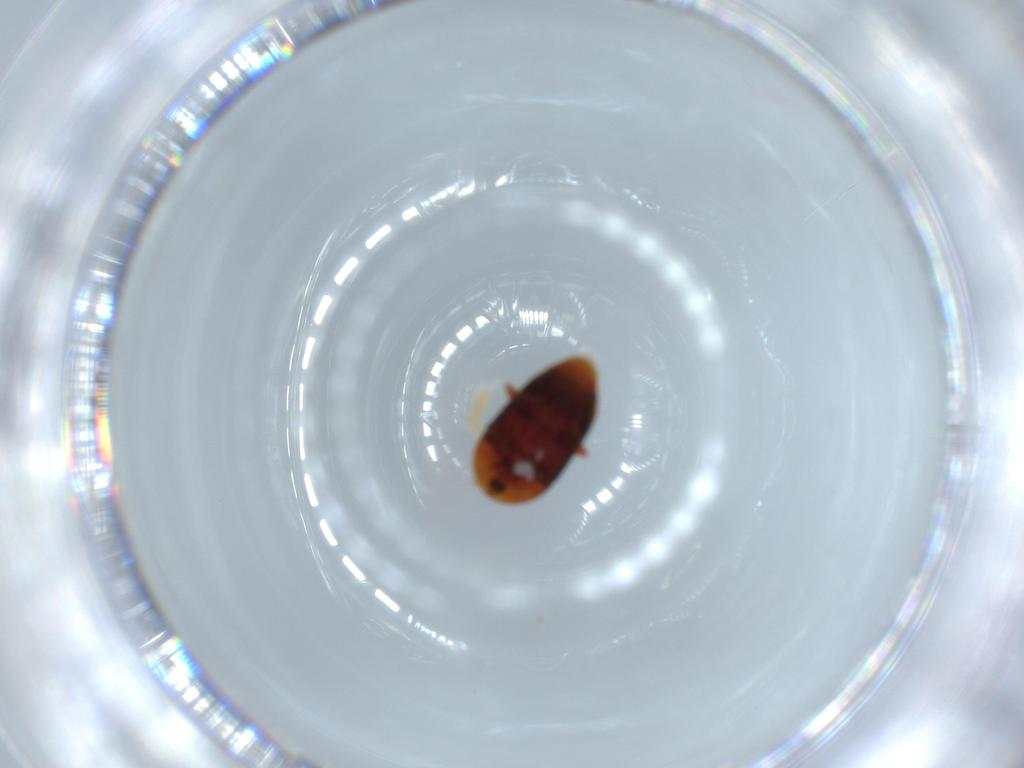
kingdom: Animalia
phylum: Arthropoda
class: Insecta
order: Coleoptera
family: Corylophidae
